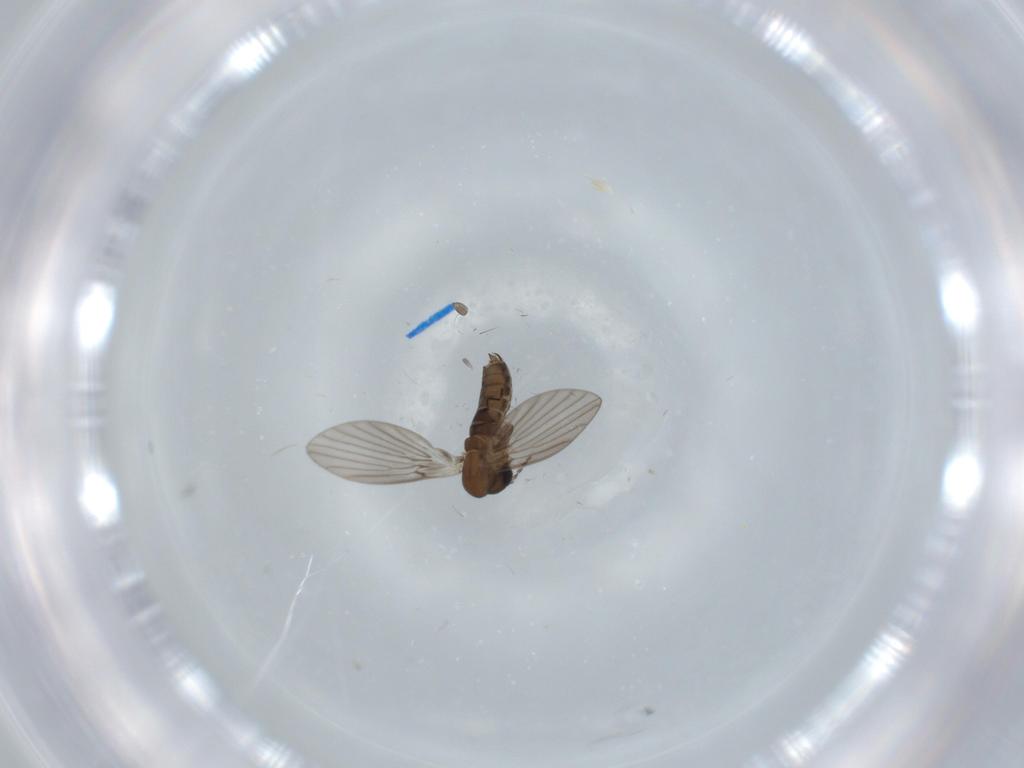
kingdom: Animalia
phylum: Arthropoda
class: Insecta
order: Diptera
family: Psychodidae
